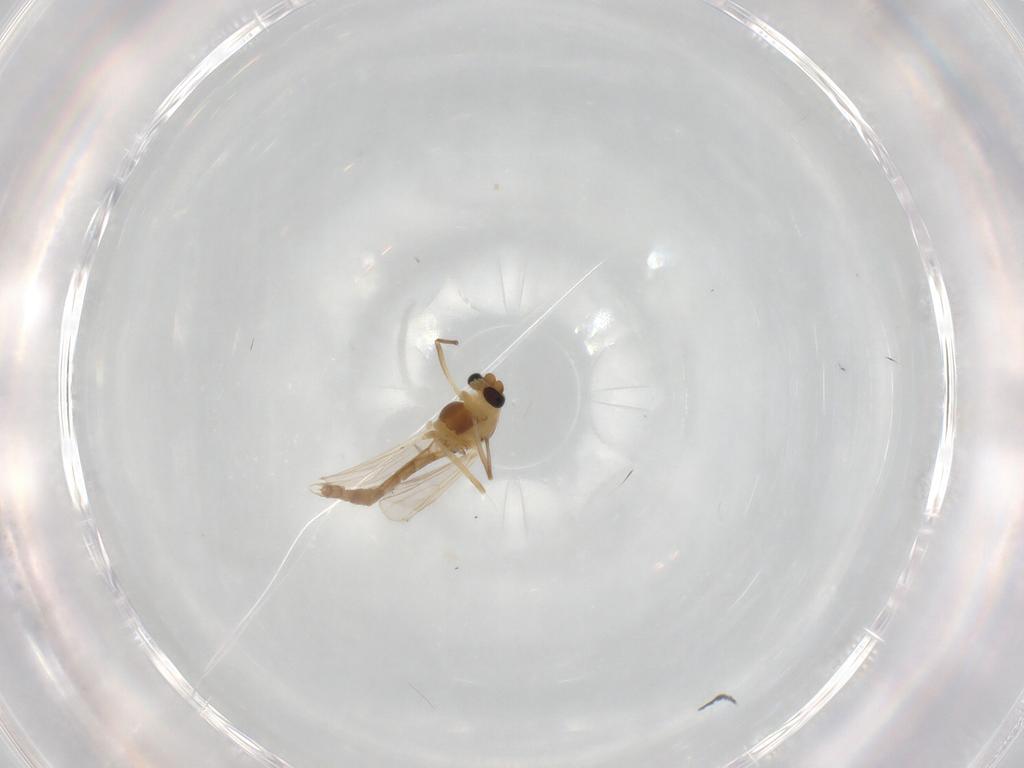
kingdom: Animalia
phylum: Arthropoda
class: Insecta
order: Diptera
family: Chironomidae
